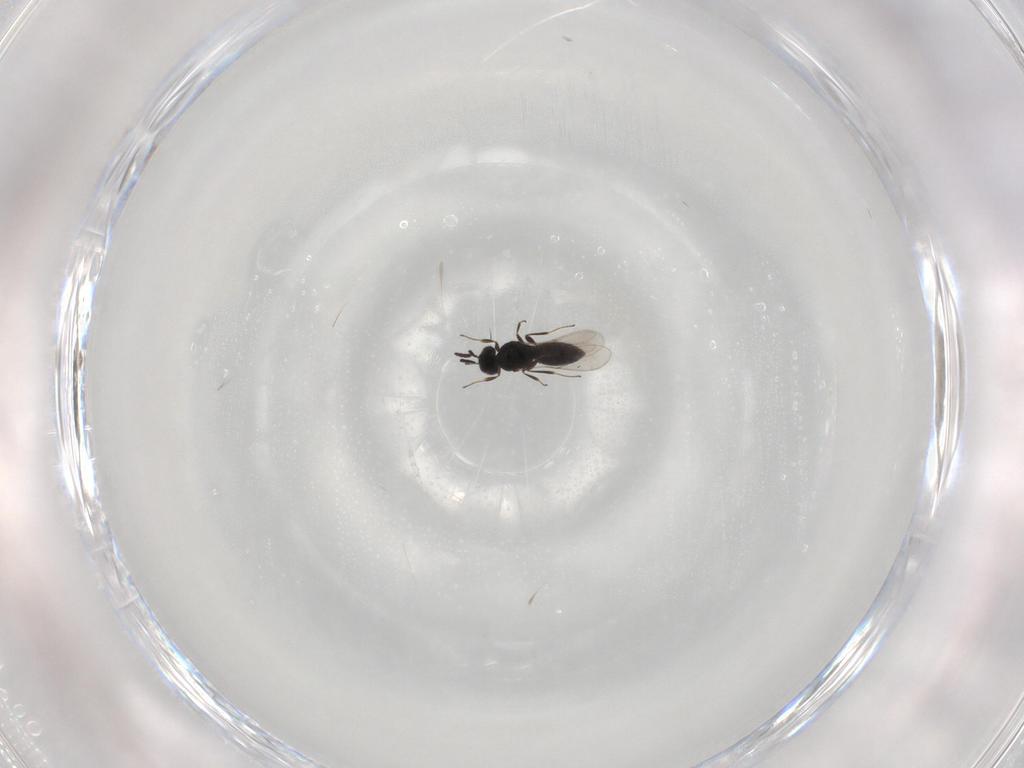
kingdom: Animalia
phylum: Arthropoda
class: Insecta
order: Hymenoptera
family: Scelionidae
